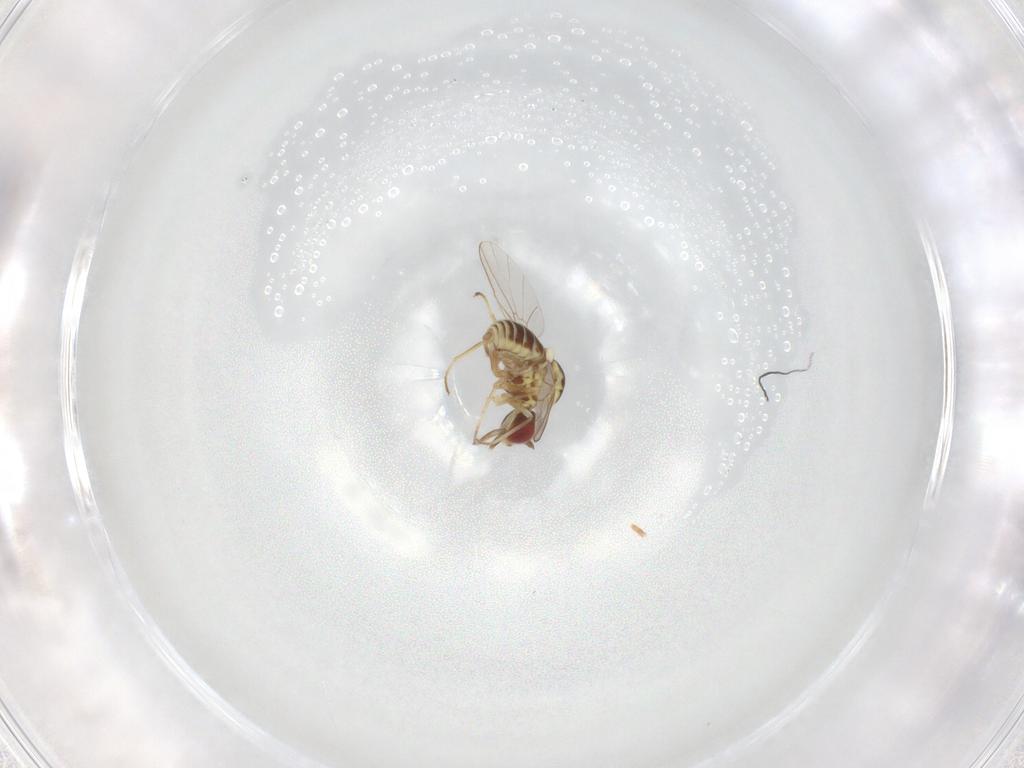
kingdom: Animalia
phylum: Arthropoda
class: Insecta
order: Diptera
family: Bombyliidae
